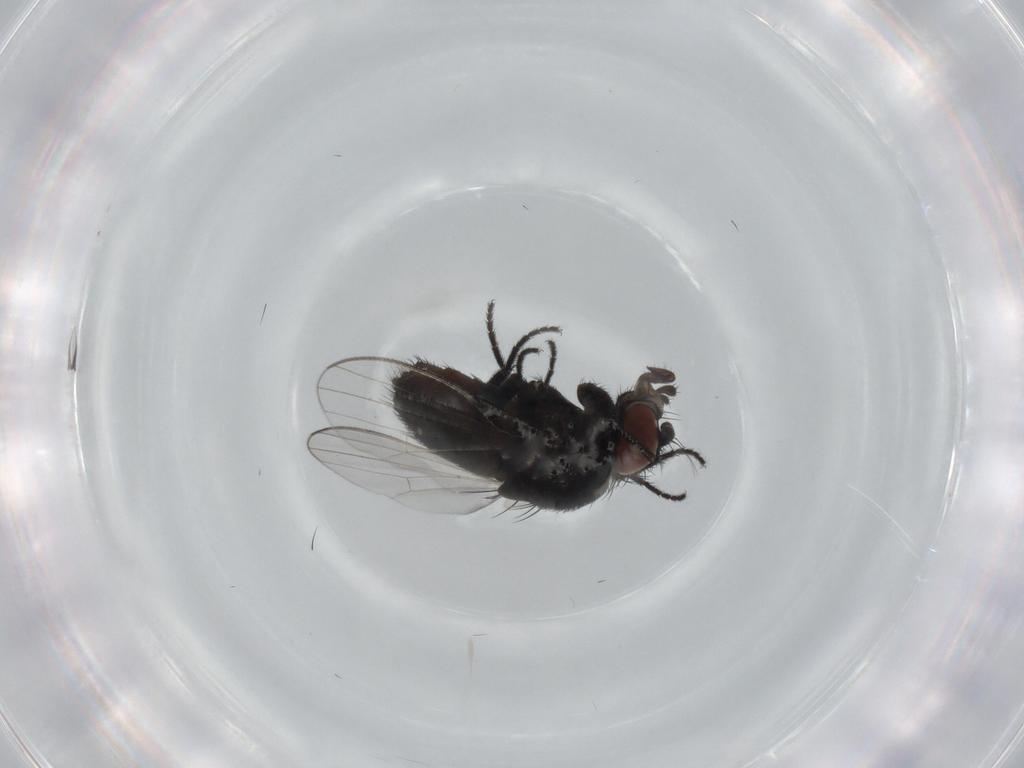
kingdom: Animalia
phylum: Arthropoda
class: Insecta
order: Diptera
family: Milichiidae
